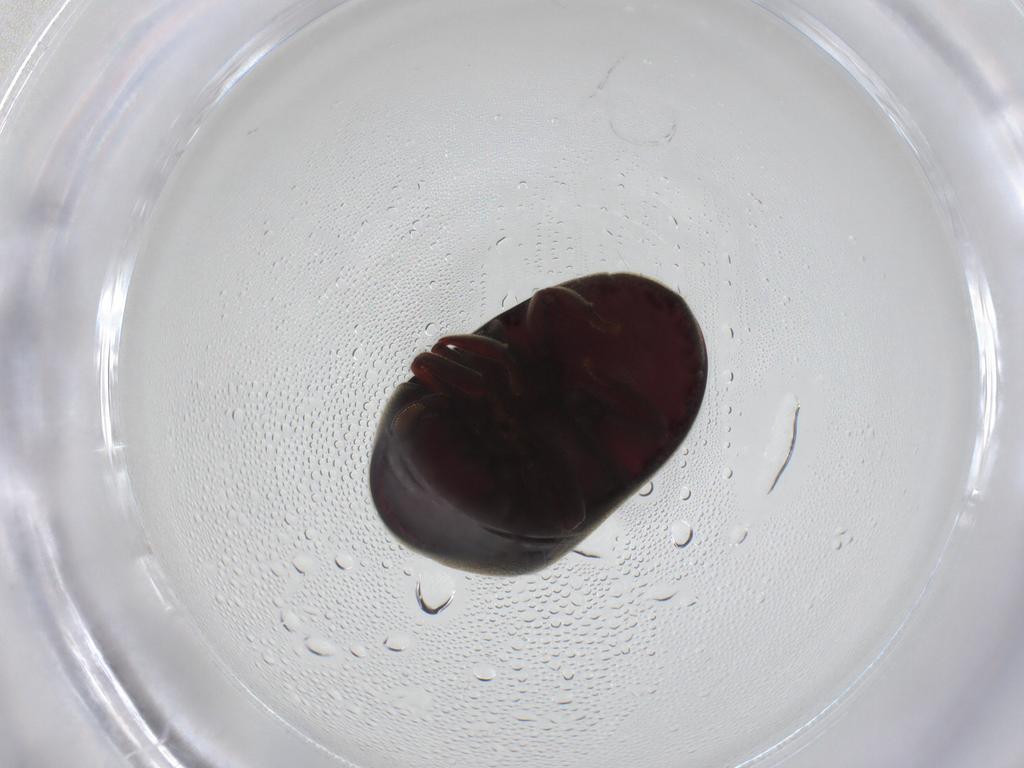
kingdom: Animalia
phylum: Arthropoda
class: Insecta
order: Coleoptera
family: Ptinidae
